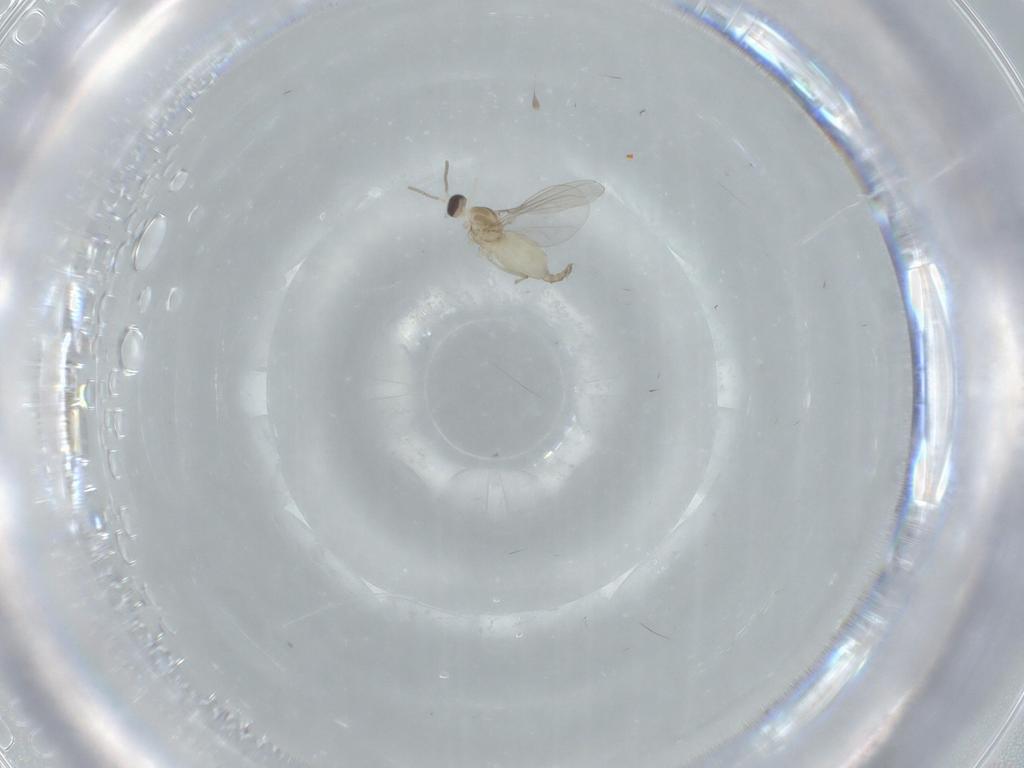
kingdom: Animalia
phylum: Arthropoda
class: Insecta
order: Diptera
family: Cecidomyiidae
